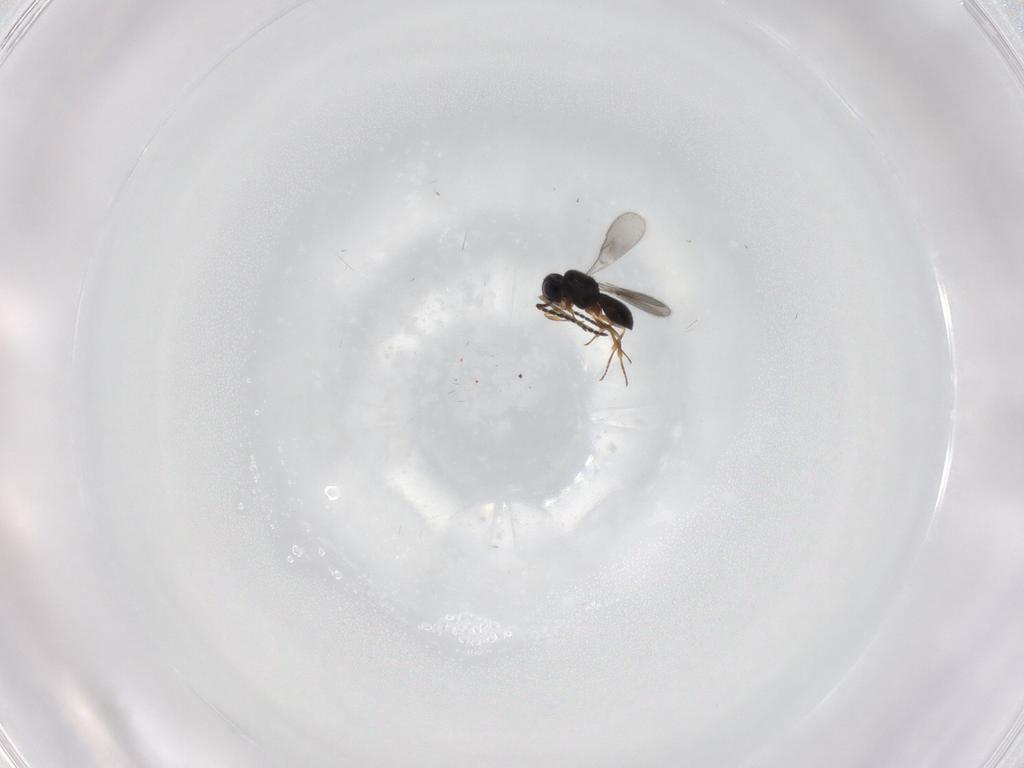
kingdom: Animalia
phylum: Arthropoda
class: Insecta
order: Hymenoptera
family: Scelionidae
